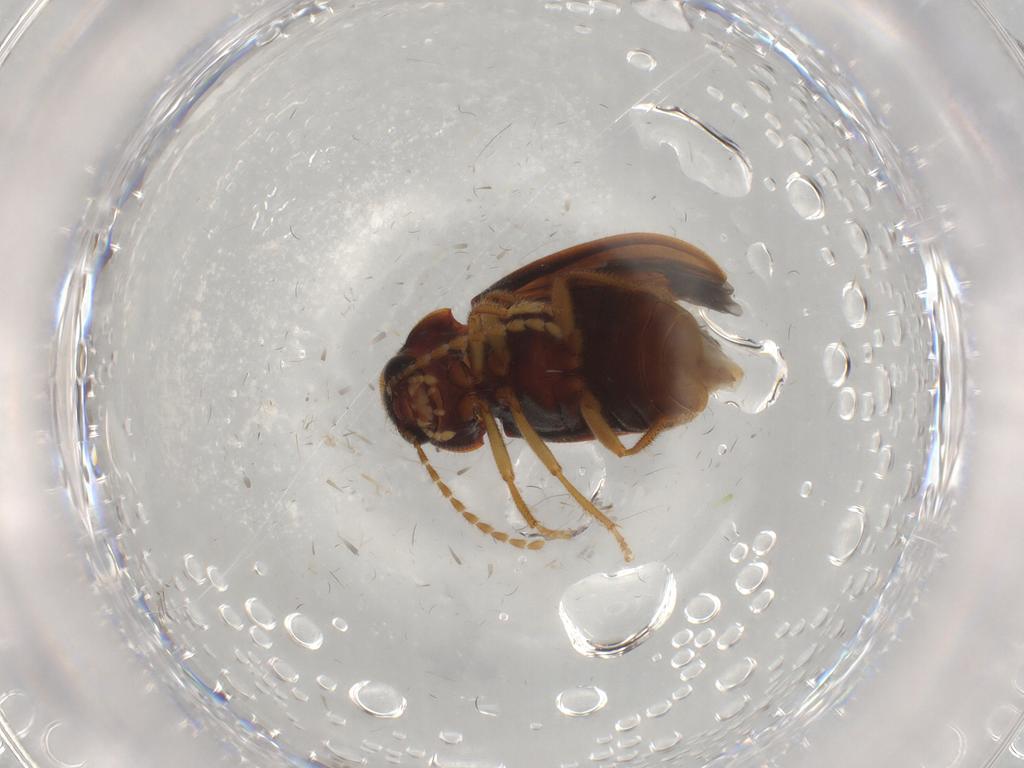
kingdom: Animalia
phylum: Arthropoda
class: Insecta
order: Coleoptera
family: Ptilodactylidae
